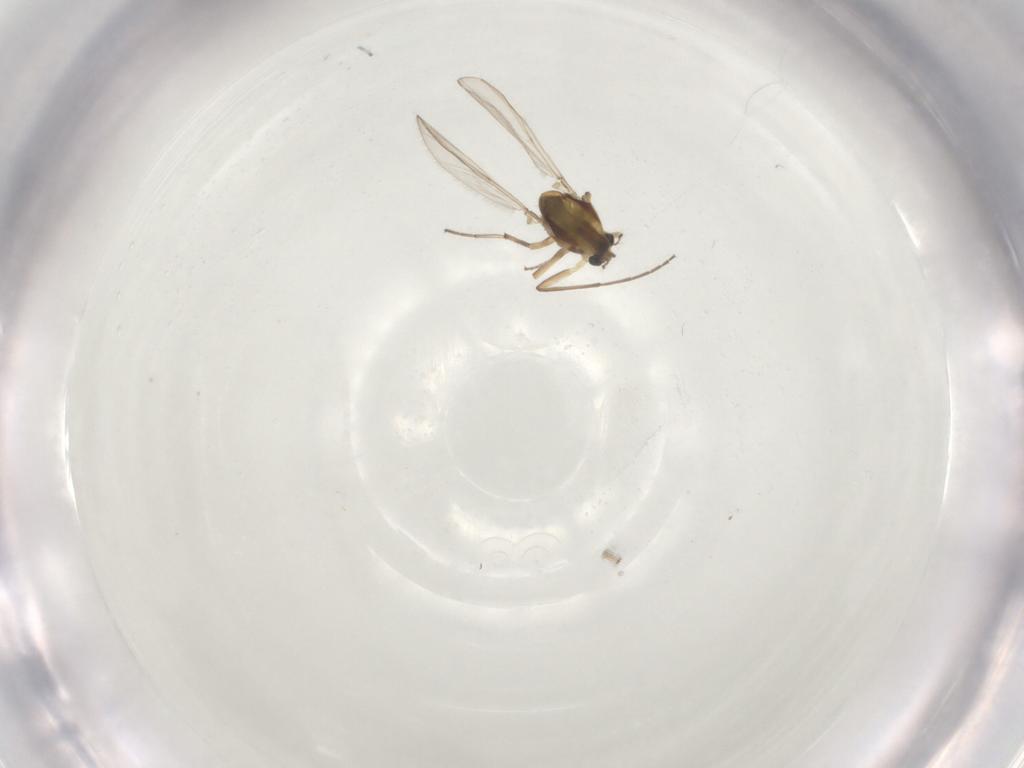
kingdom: Animalia
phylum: Arthropoda
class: Insecta
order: Diptera
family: Chironomidae
